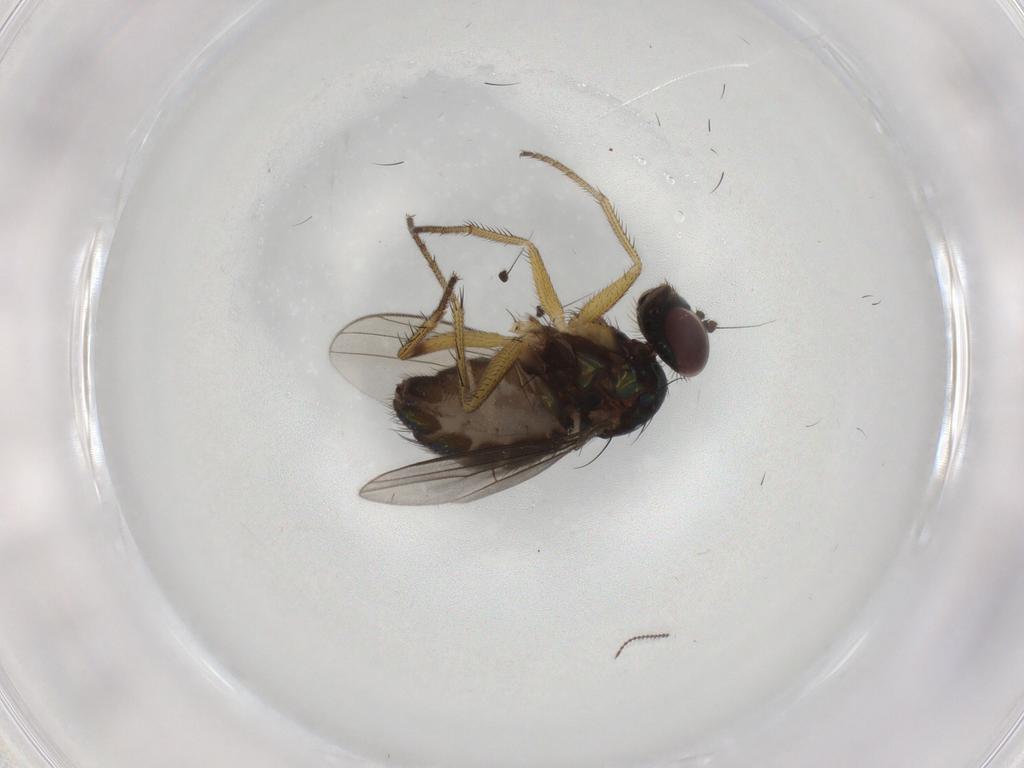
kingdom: Animalia
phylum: Arthropoda
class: Insecta
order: Diptera
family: Dolichopodidae
